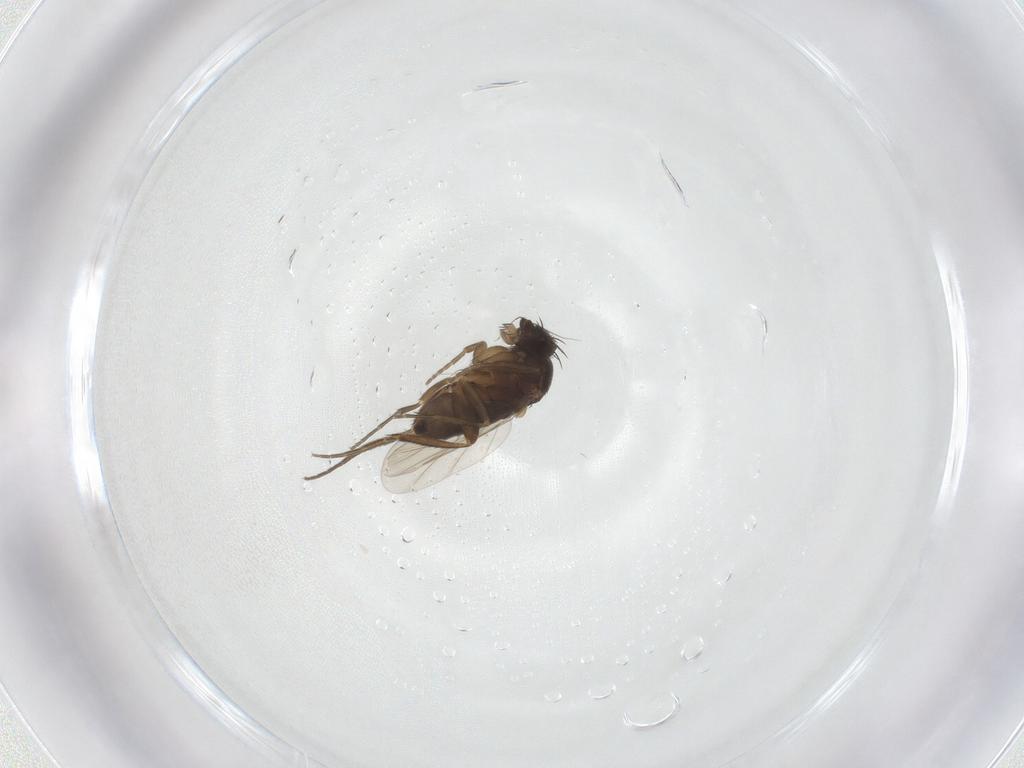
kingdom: Animalia
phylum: Arthropoda
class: Insecta
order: Diptera
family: Phoridae
